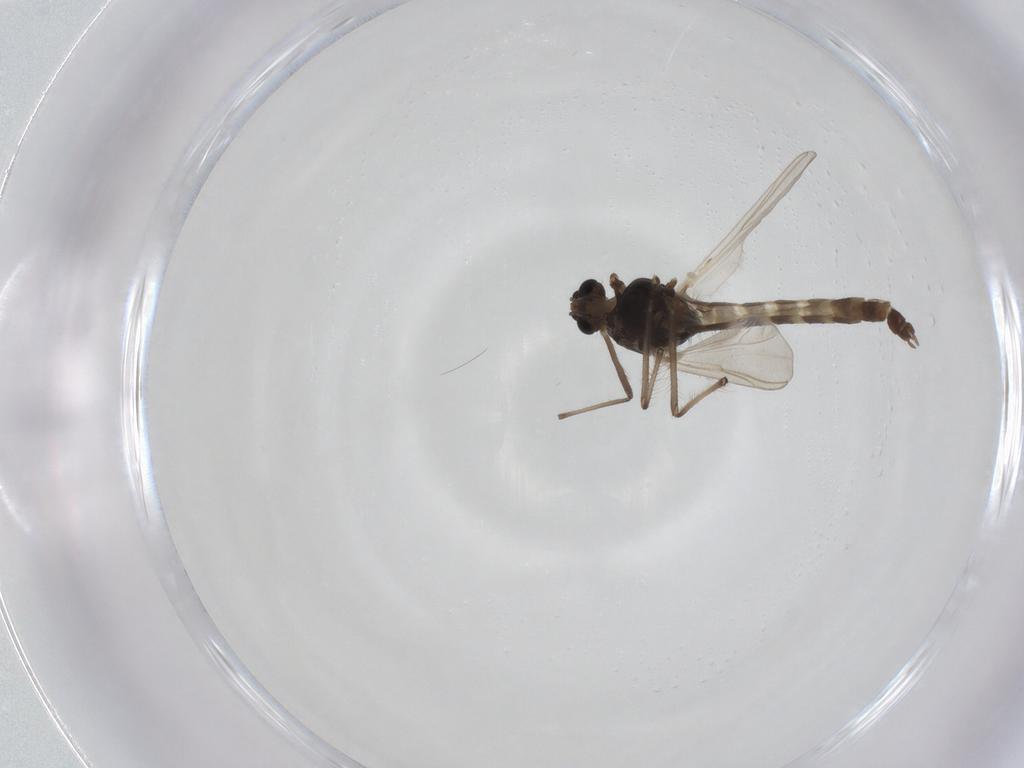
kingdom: Animalia
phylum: Arthropoda
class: Insecta
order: Diptera
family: Chironomidae
